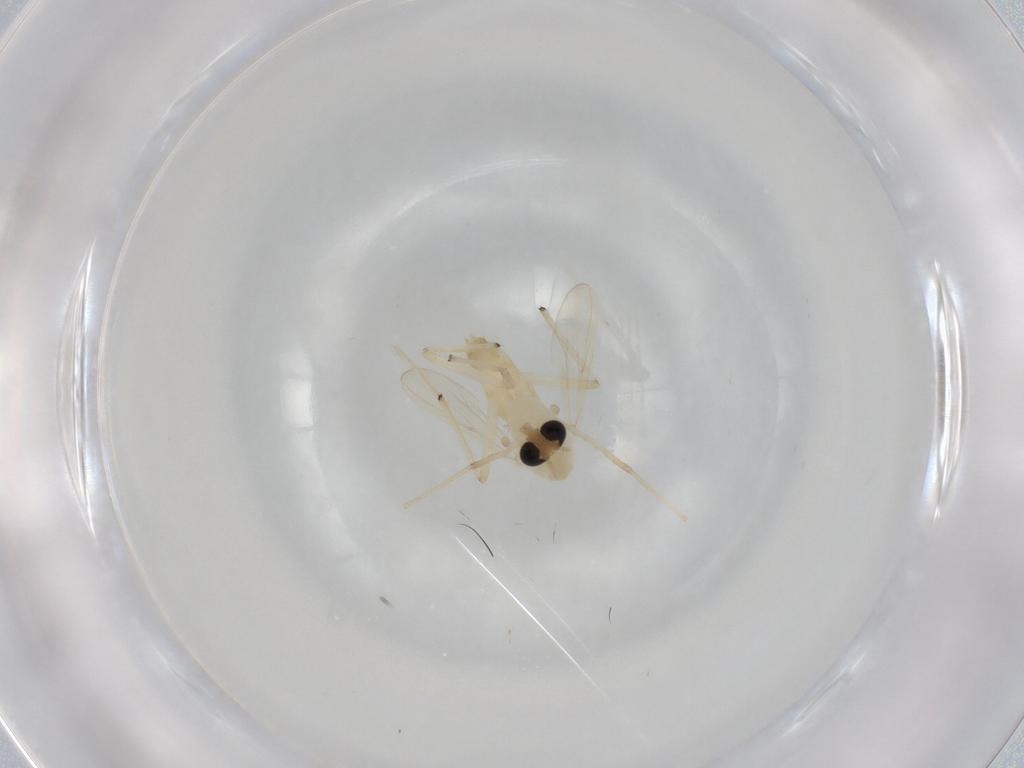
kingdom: Animalia
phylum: Arthropoda
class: Insecta
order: Diptera
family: Chironomidae
